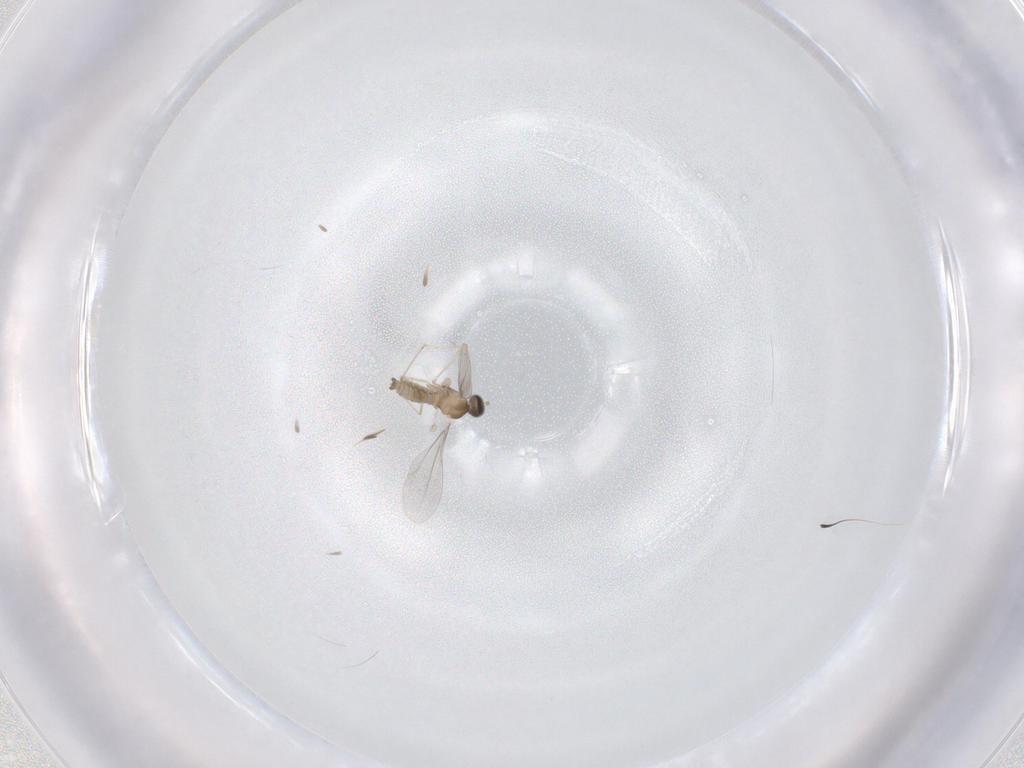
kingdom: Animalia
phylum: Arthropoda
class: Insecta
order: Diptera
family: Cecidomyiidae
